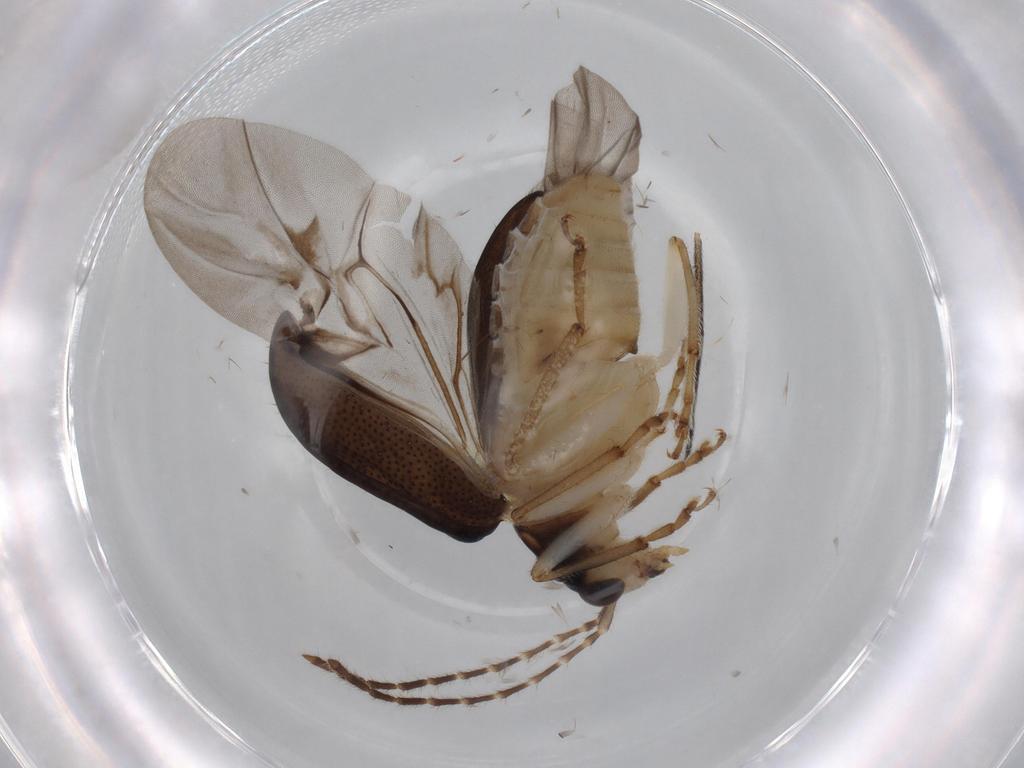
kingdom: Animalia
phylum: Arthropoda
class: Insecta
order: Coleoptera
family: Chrysomelidae
